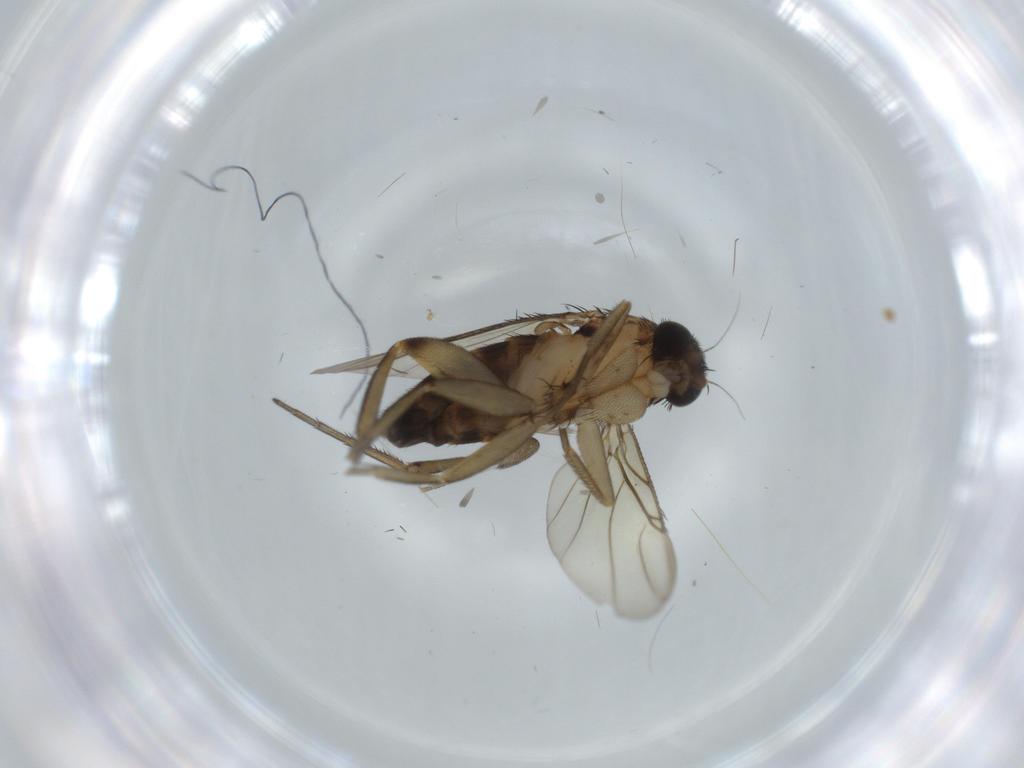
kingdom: Animalia
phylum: Arthropoda
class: Insecta
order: Diptera
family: Phoridae
